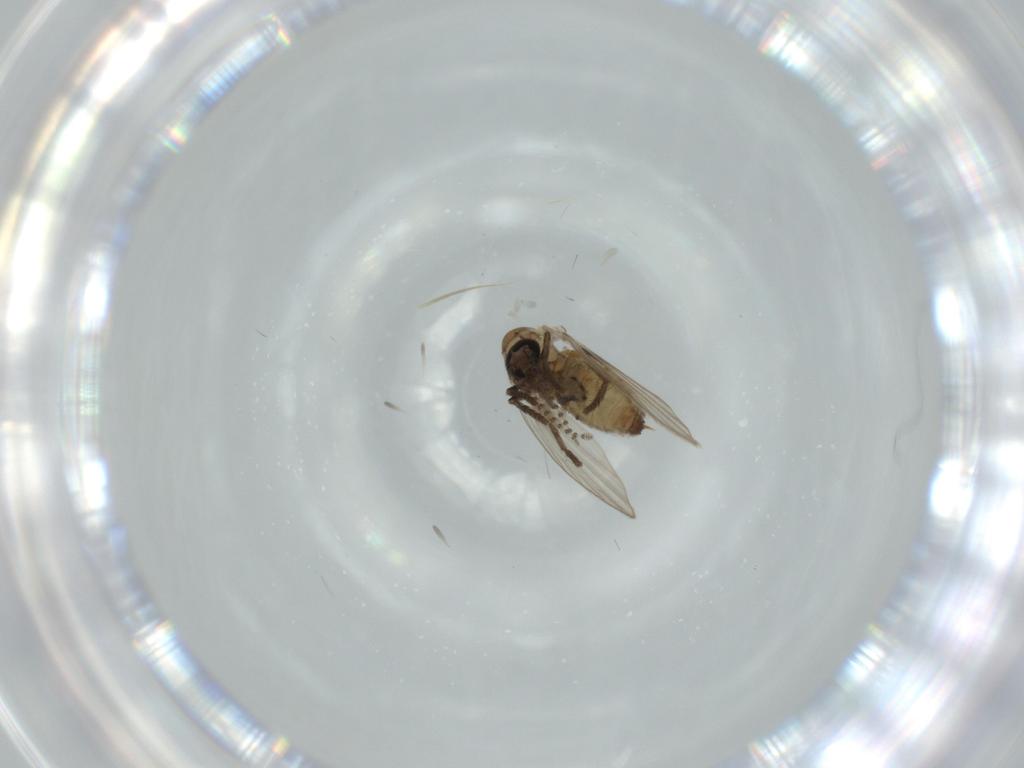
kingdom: Animalia
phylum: Arthropoda
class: Insecta
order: Diptera
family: Psychodidae
